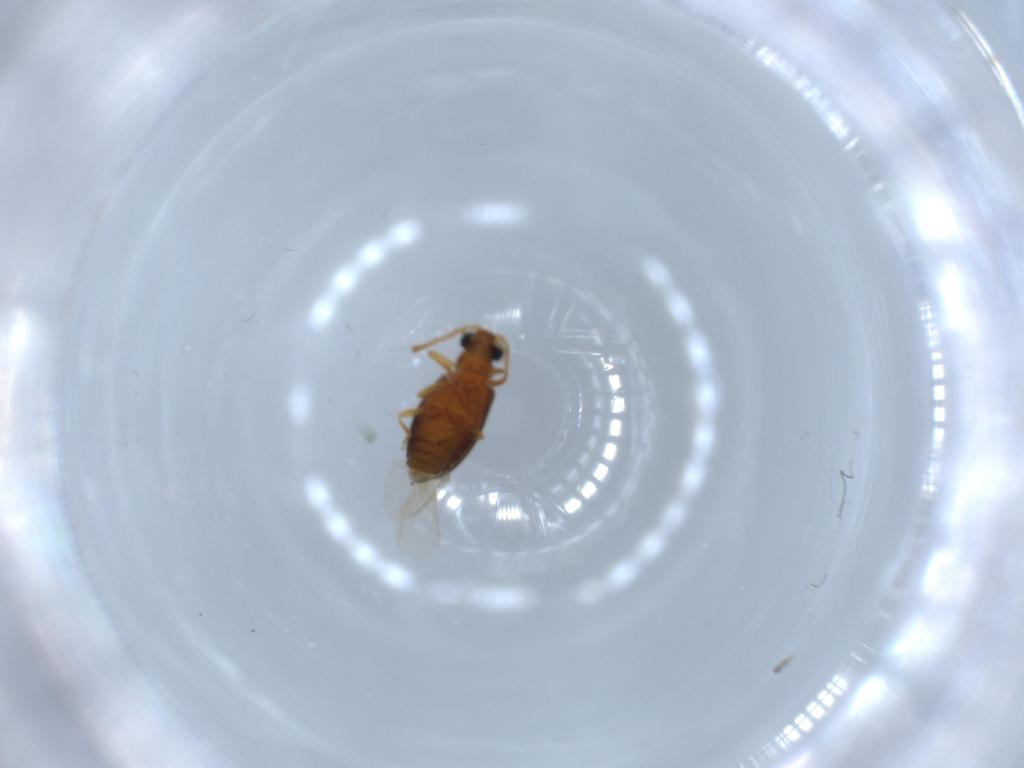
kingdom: Animalia
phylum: Arthropoda
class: Insecta
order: Coleoptera
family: Aderidae
